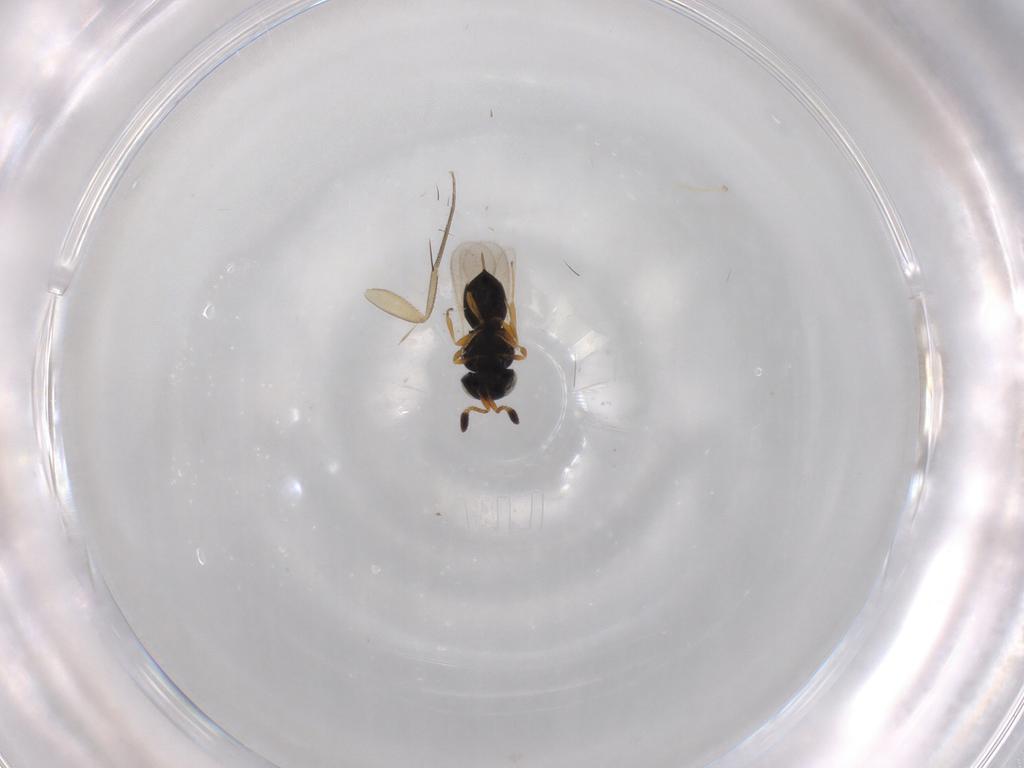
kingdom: Animalia
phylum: Arthropoda
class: Insecta
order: Hymenoptera
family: Scelionidae
